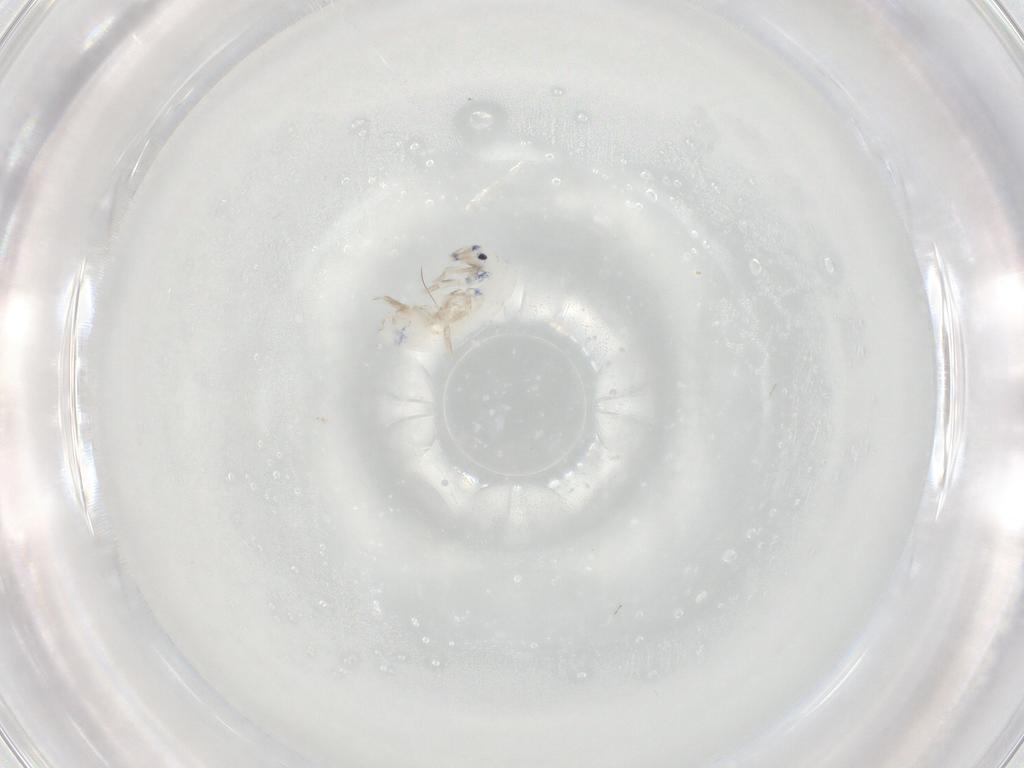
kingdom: Animalia
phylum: Arthropoda
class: Collembola
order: Entomobryomorpha
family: Entomobryidae
